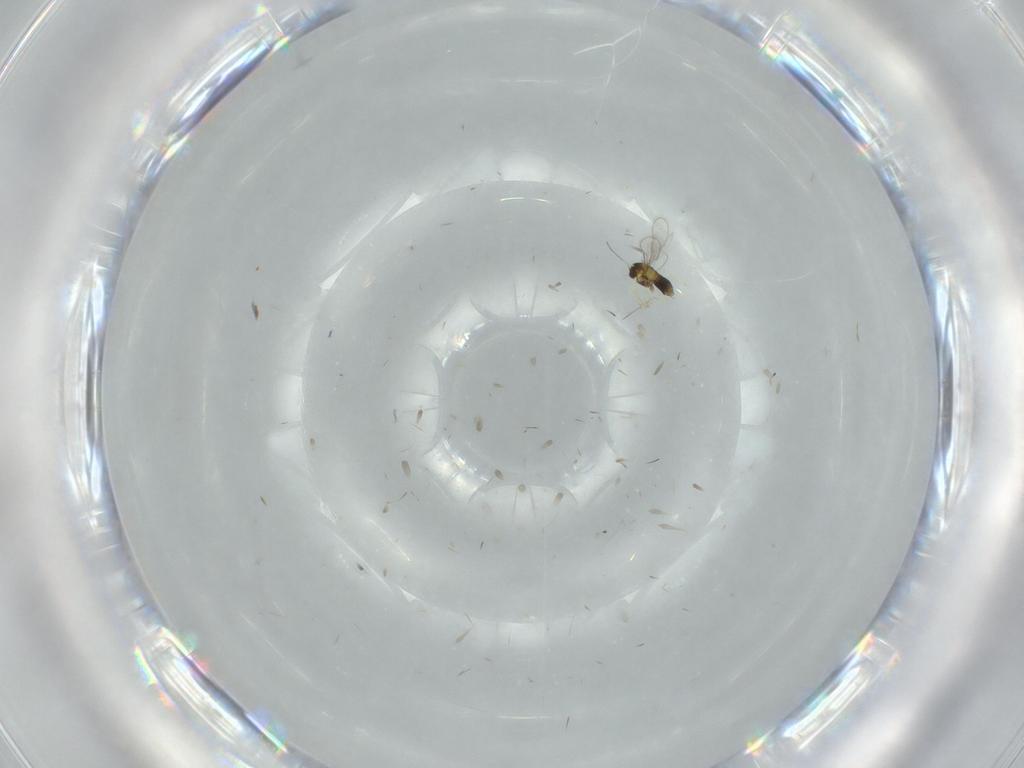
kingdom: Animalia
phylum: Arthropoda
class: Insecta
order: Hymenoptera
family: Aphelinidae
